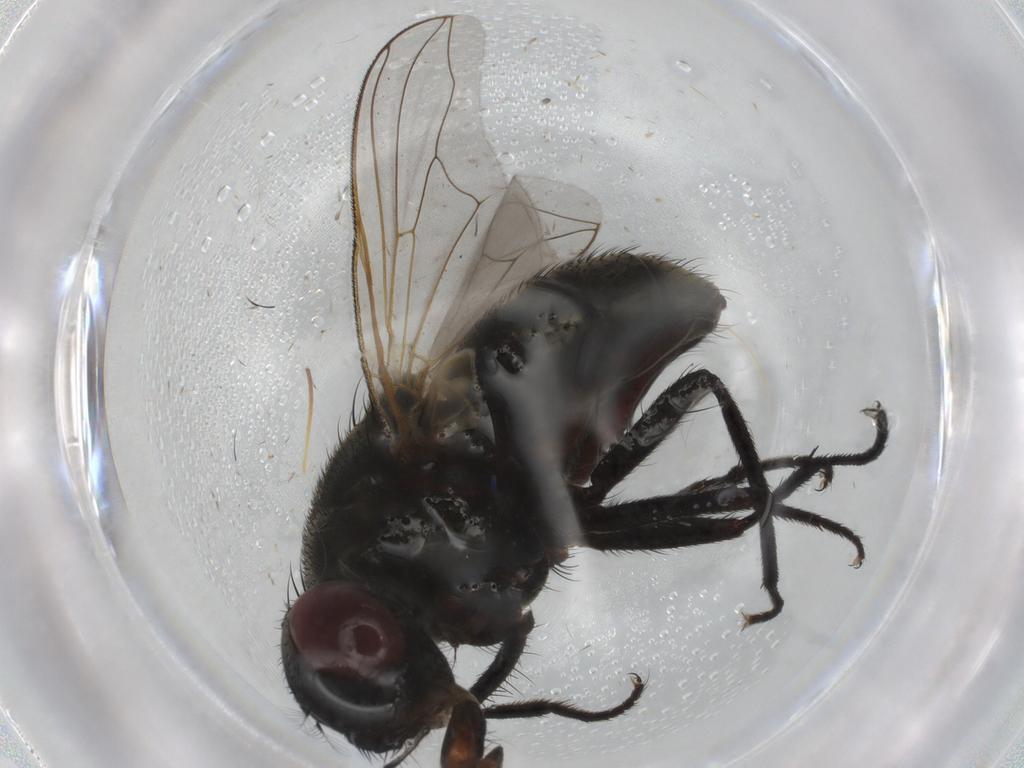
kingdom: Animalia
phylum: Arthropoda
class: Insecta
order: Diptera
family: Muscidae
